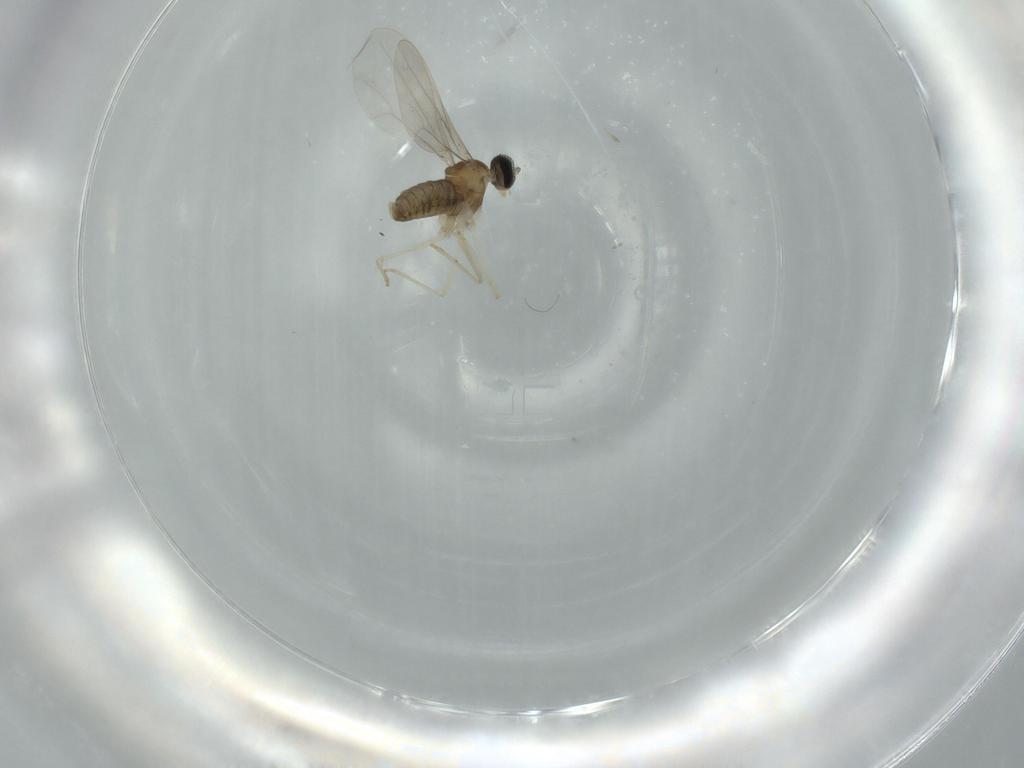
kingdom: Animalia
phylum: Arthropoda
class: Insecta
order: Diptera
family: Cecidomyiidae
